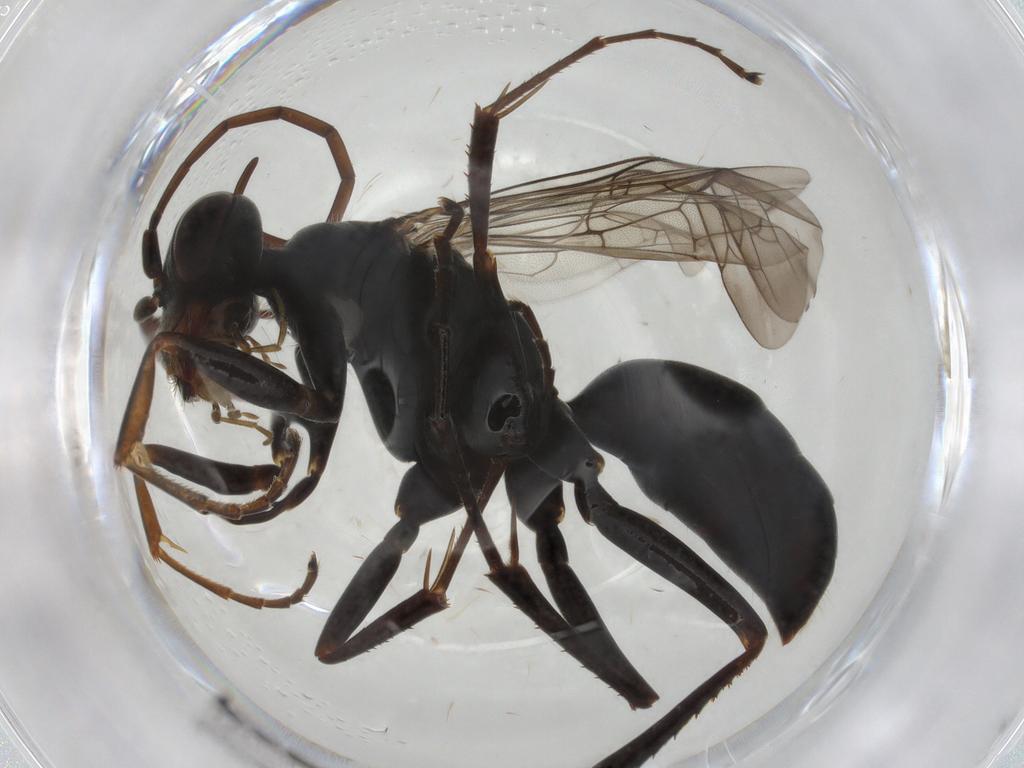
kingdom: Animalia
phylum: Arthropoda
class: Insecta
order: Hymenoptera
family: Pompilidae
